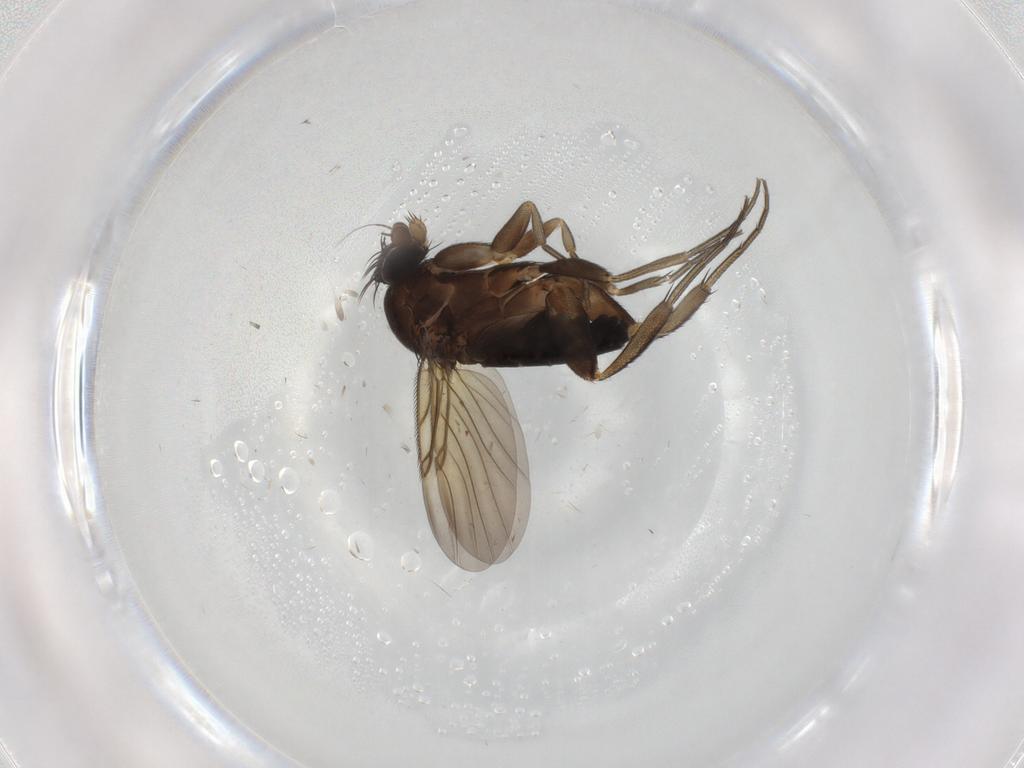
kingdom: Animalia
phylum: Arthropoda
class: Insecta
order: Diptera
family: Phoridae
